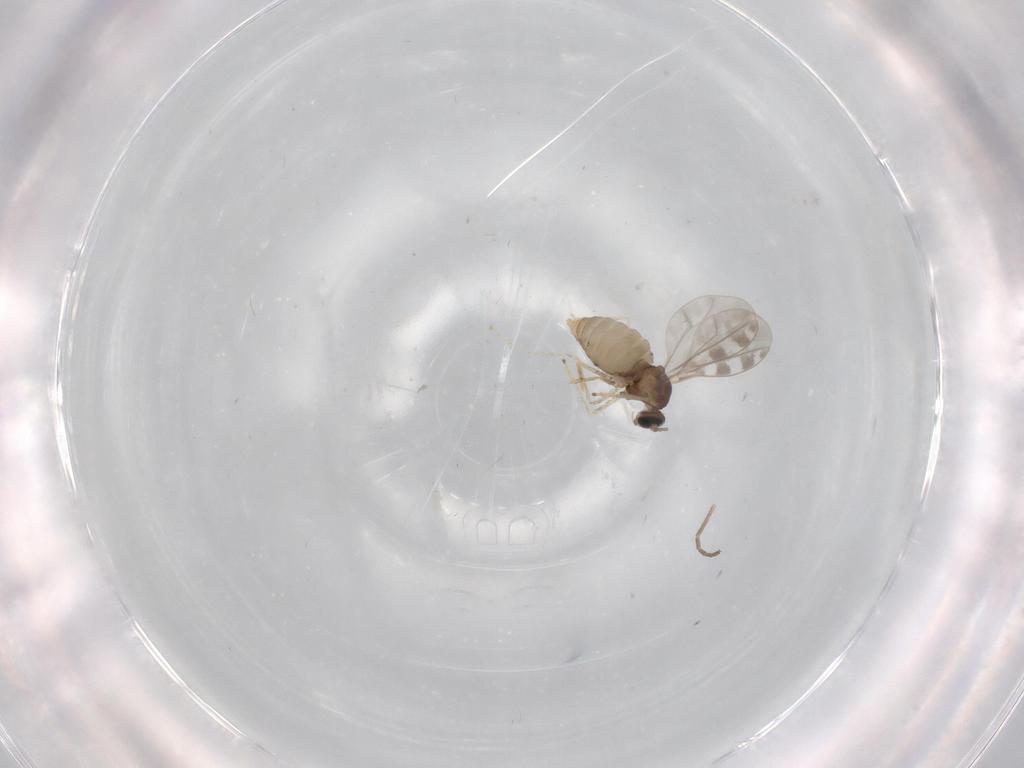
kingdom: Animalia
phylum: Arthropoda
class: Insecta
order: Diptera
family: Cecidomyiidae
